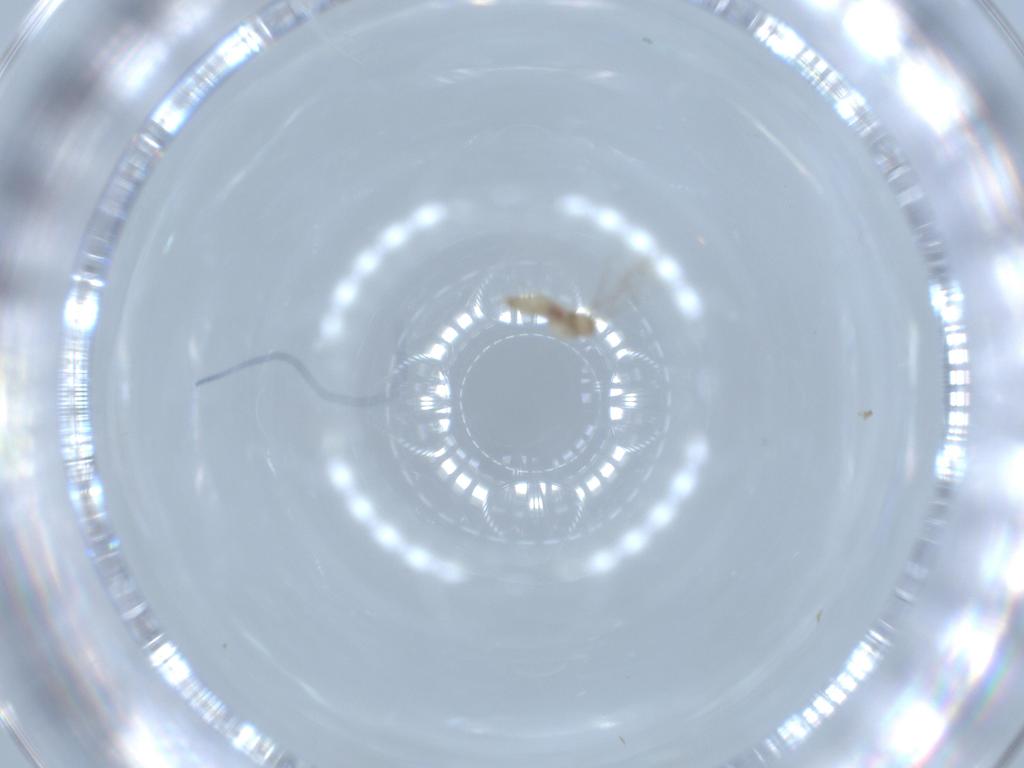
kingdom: Animalia
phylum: Arthropoda
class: Insecta
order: Diptera
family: Cecidomyiidae
